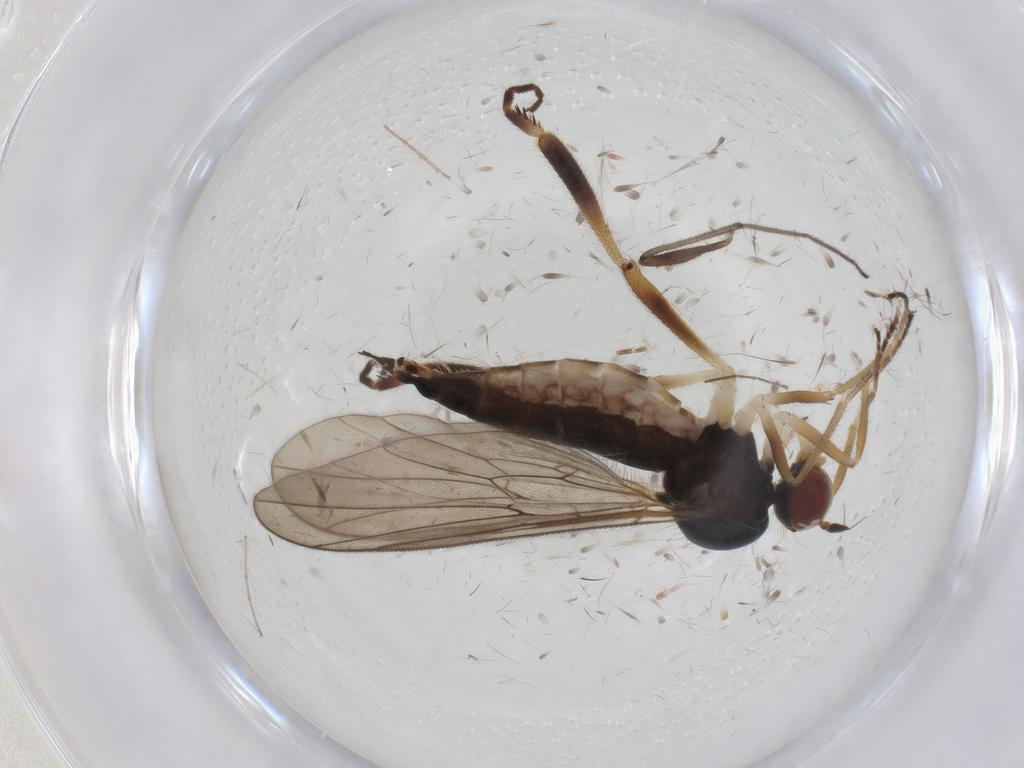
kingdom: Animalia
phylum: Arthropoda
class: Insecta
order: Diptera
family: Hybotidae
